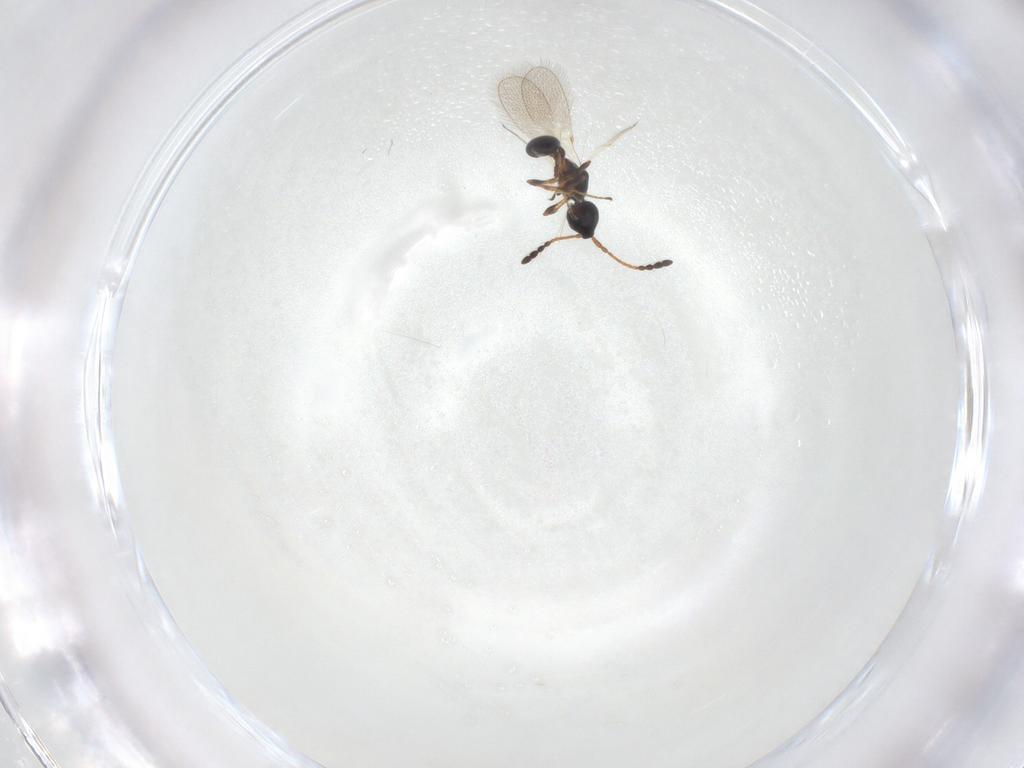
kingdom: Animalia
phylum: Arthropoda
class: Insecta
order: Hymenoptera
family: Diapriidae
